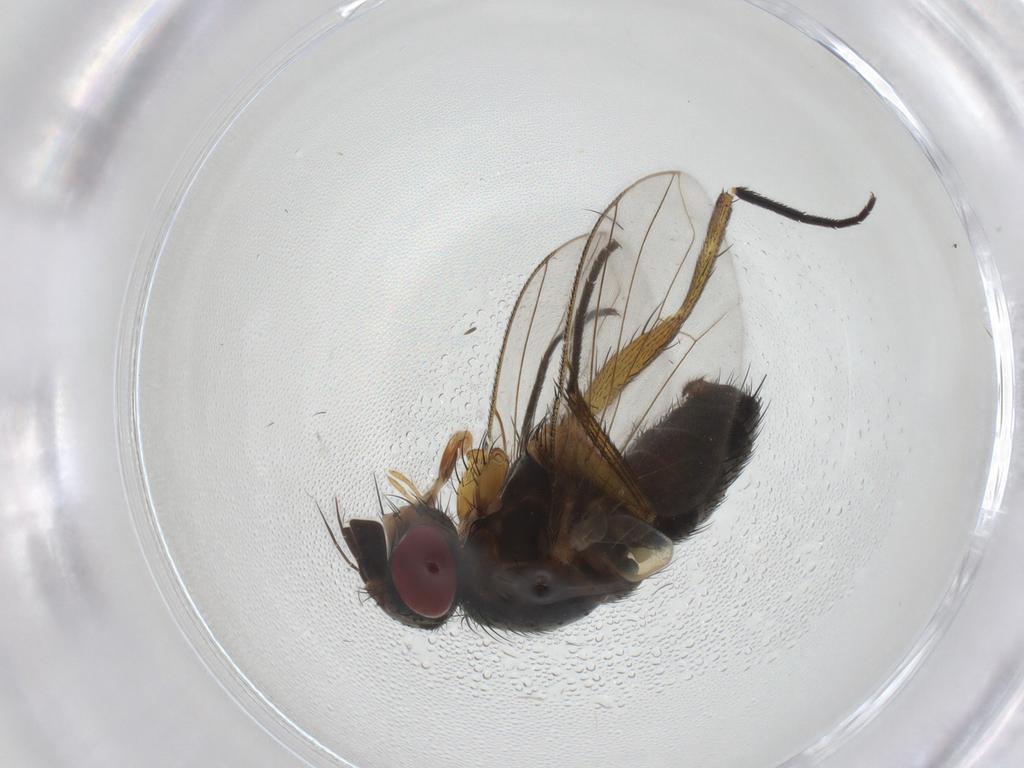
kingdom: Animalia
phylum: Arthropoda
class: Insecta
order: Diptera
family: Anthomyiidae
